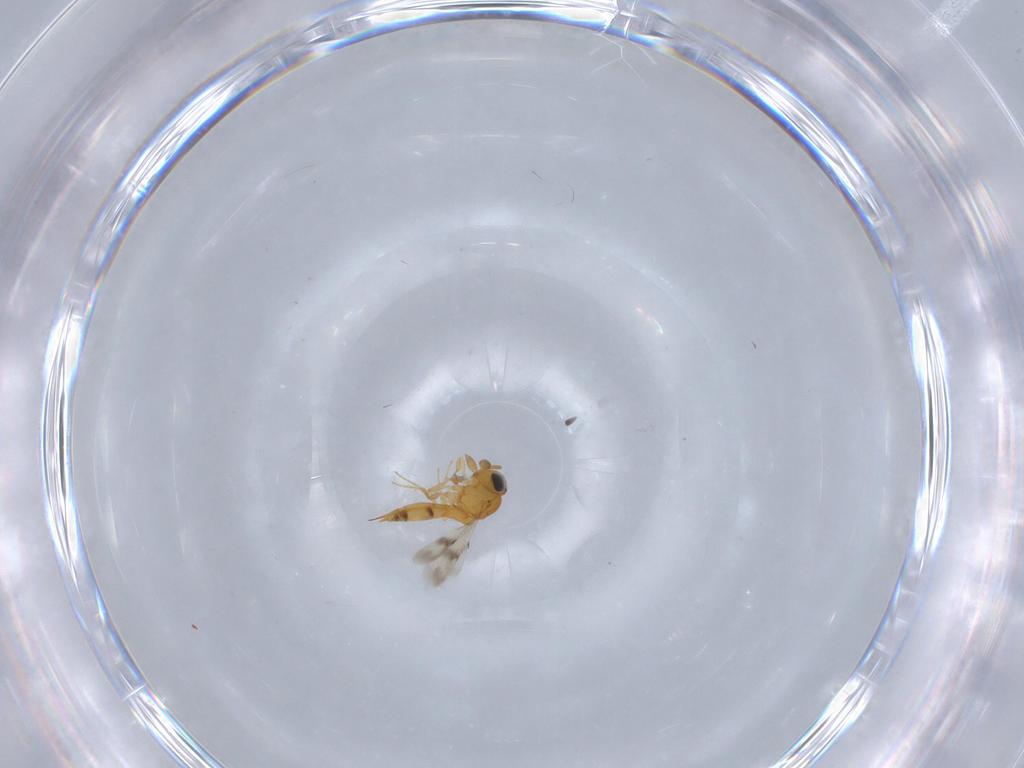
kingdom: Animalia
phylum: Arthropoda
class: Insecta
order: Hymenoptera
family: Scelionidae
